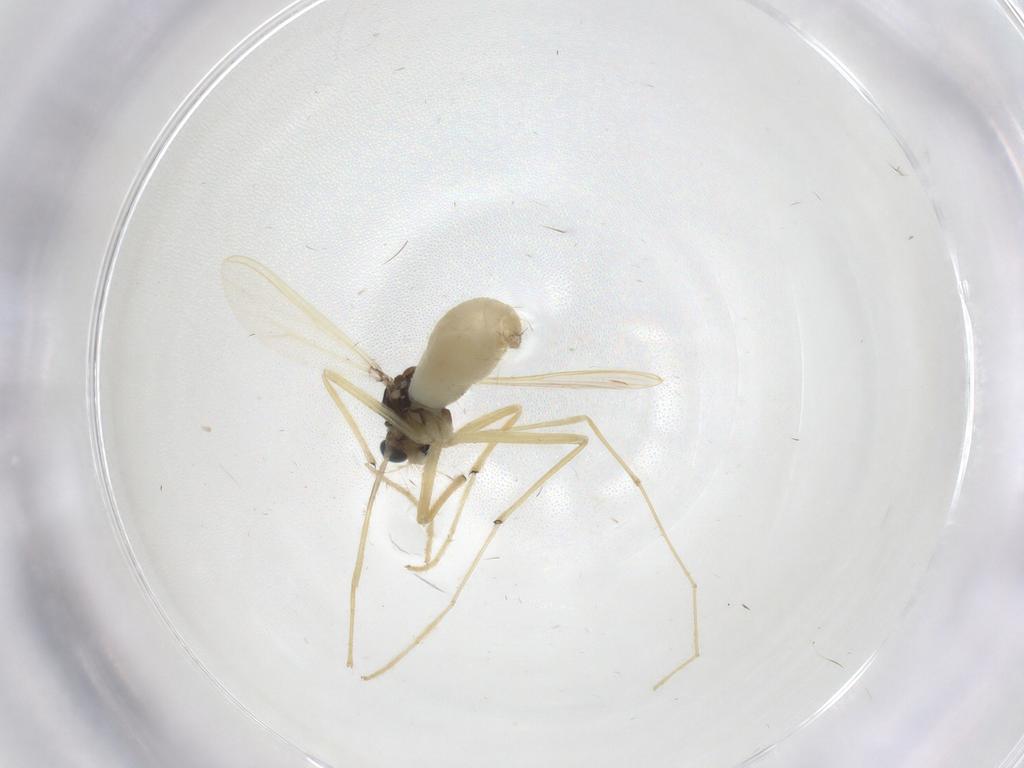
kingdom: Animalia
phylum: Arthropoda
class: Insecta
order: Diptera
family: Chironomidae
